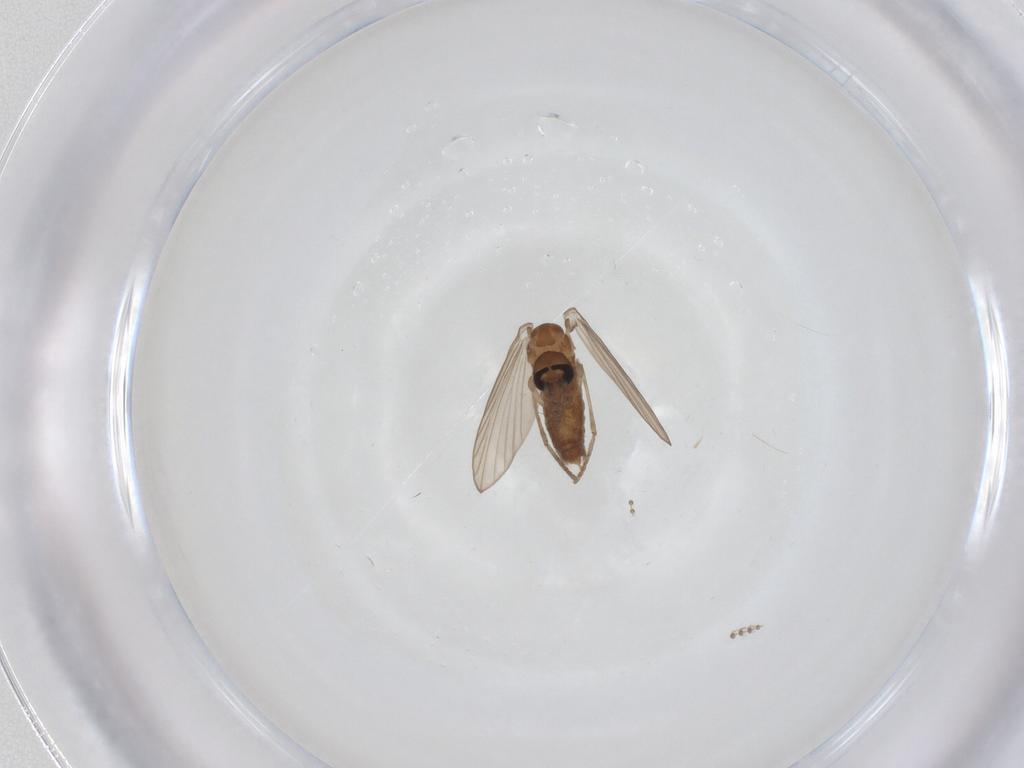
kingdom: Animalia
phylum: Arthropoda
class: Insecta
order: Diptera
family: Psychodidae
